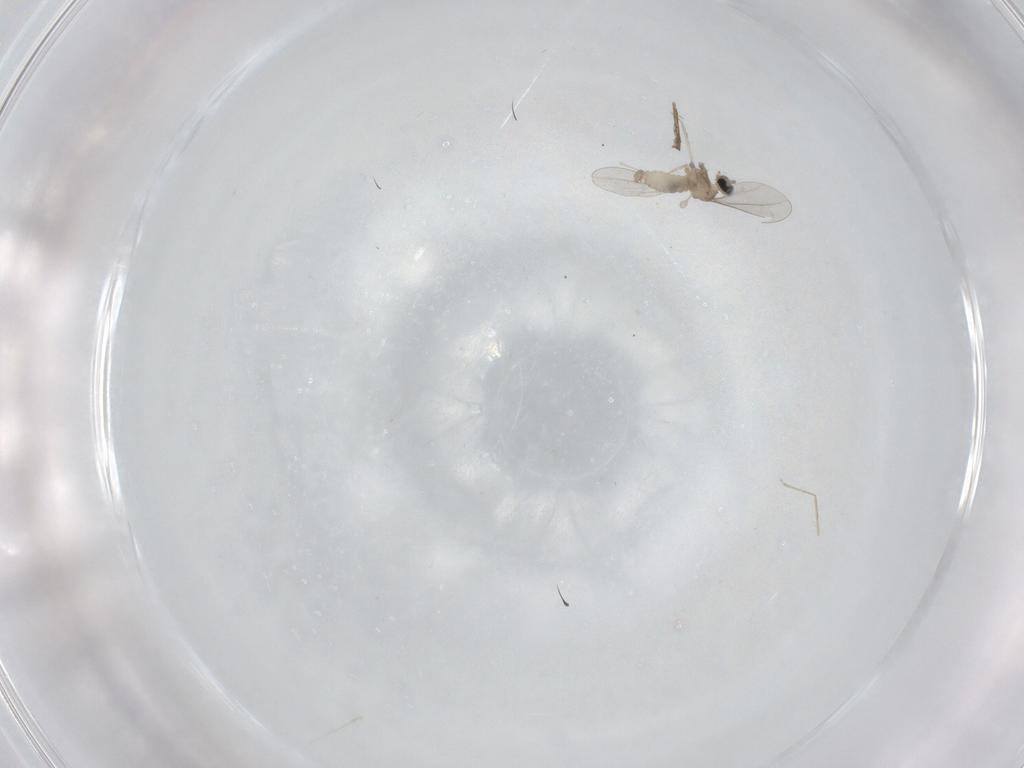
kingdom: Animalia
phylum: Arthropoda
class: Insecta
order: Diptera
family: Cecidomyiidae
